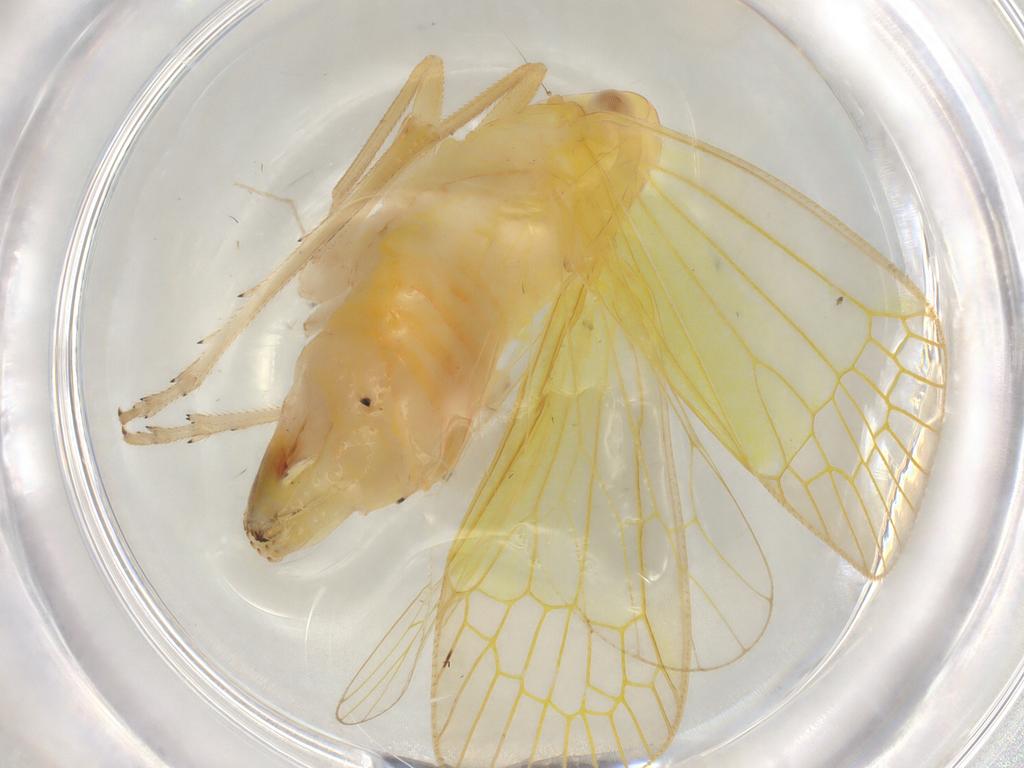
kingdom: Animalia
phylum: Arthropoda
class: Insecta
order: Hemiptera
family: Tropiduchidae
